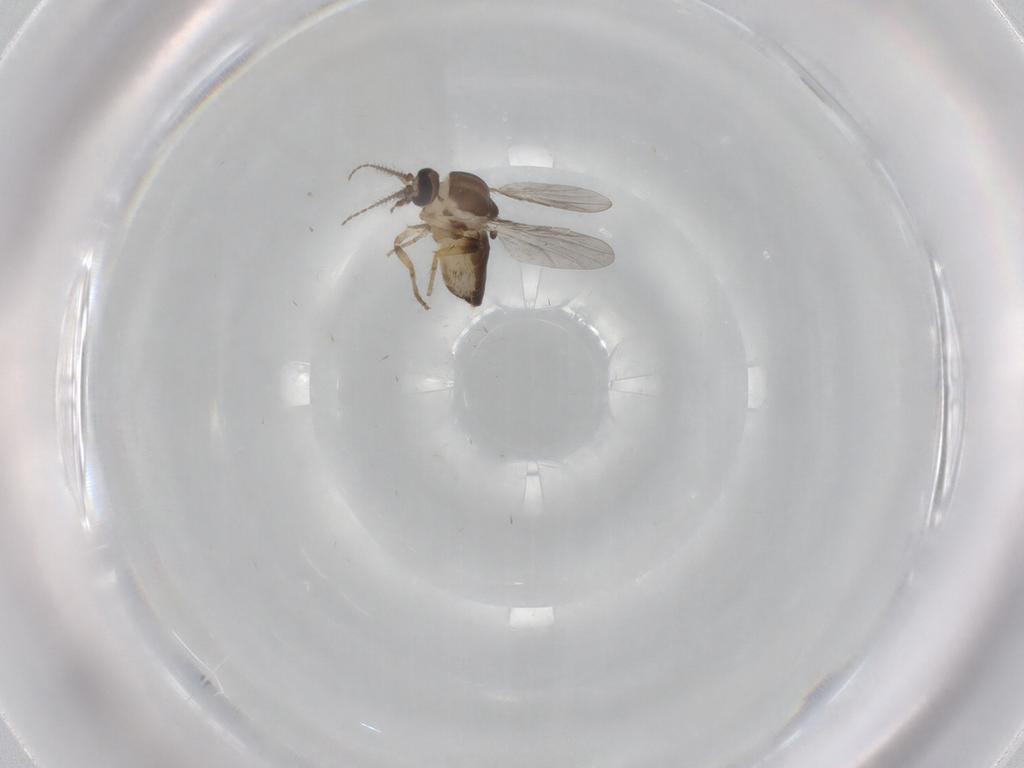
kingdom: Animalia
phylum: Arthropoda
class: Insecta
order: Diptera
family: Ceratopogonidae
